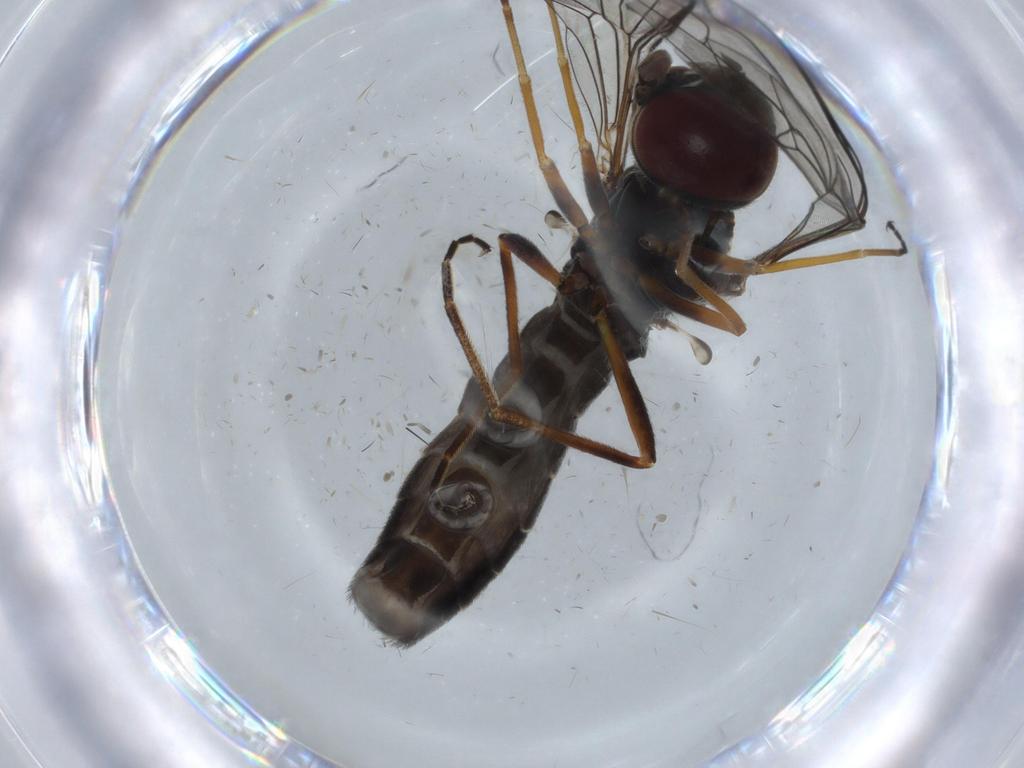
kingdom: Animalia
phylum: Arthropoda
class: Insecta
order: Diptera
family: Bombyliidae
